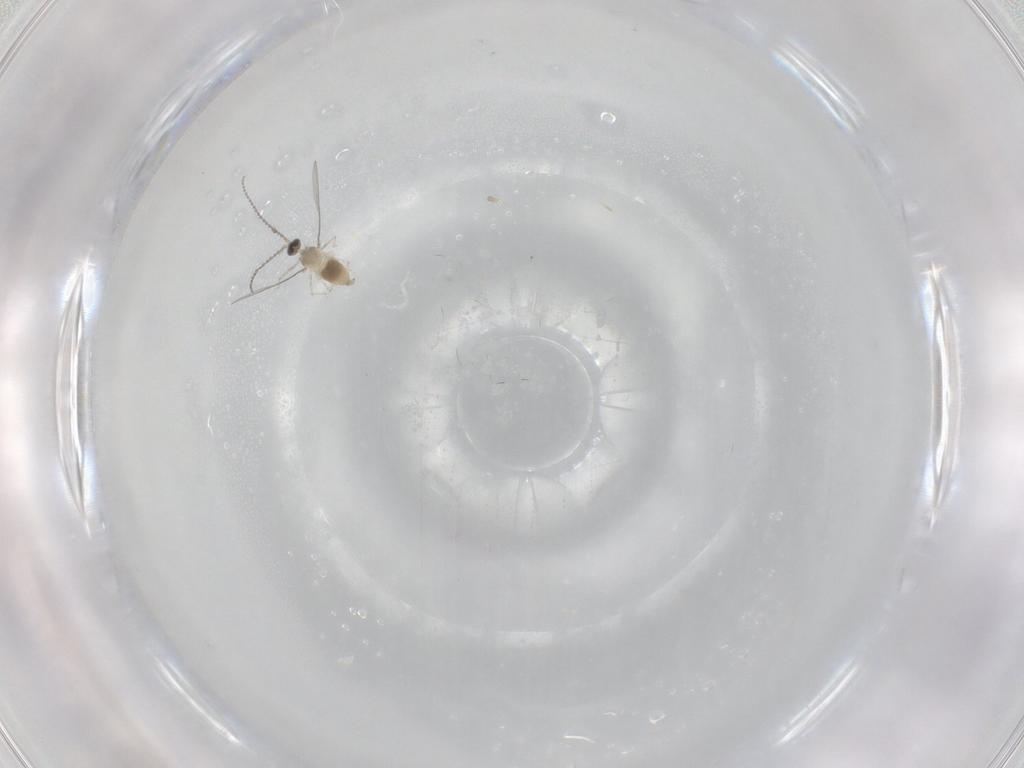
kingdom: Animalia
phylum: Arthropoda
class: Insecta
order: Diptera
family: Cecidomyiidae
